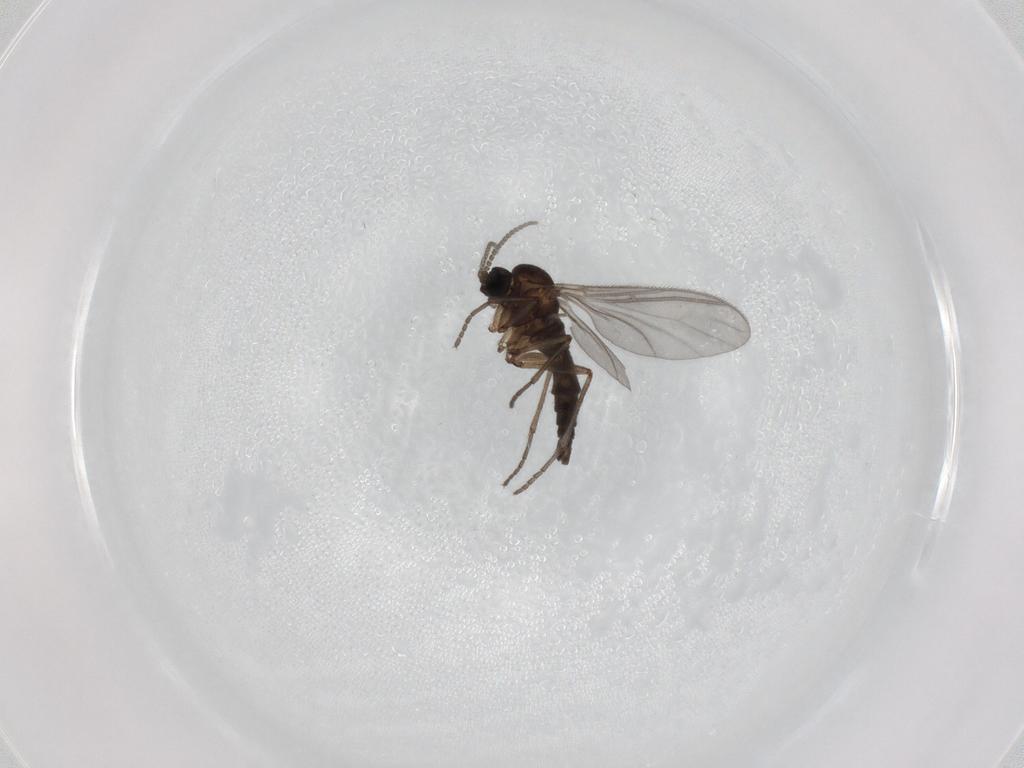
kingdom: Animalia
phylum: Arthropoda
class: Insecta
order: Diptera
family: Sciaridae
